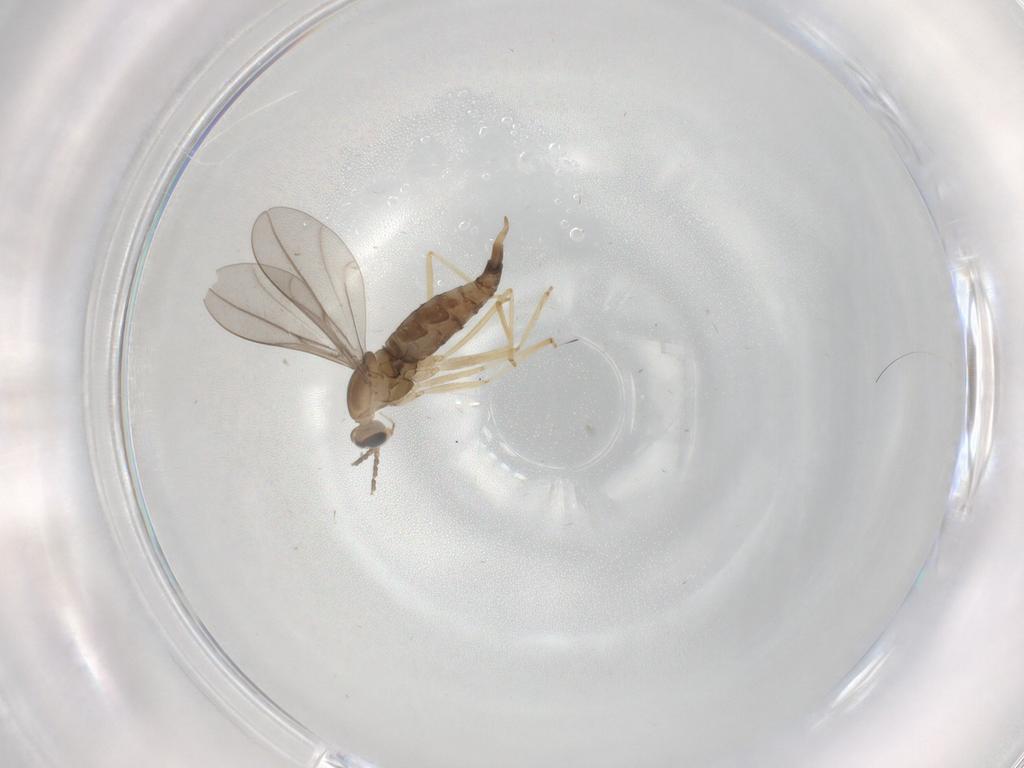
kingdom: Animalia
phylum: Arthropoda
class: Insecta
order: Diptera
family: Cecidomyiidae
